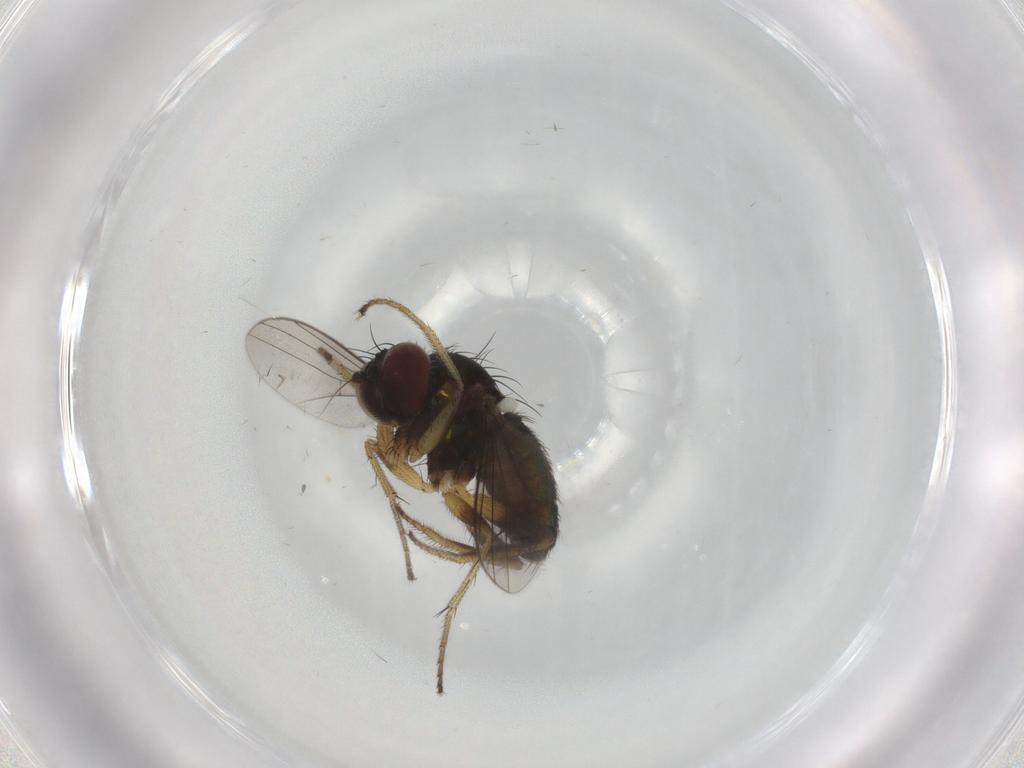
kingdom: Animalia
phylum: Arthropoda
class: Insecta
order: Diptera
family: Dolichopodidae
